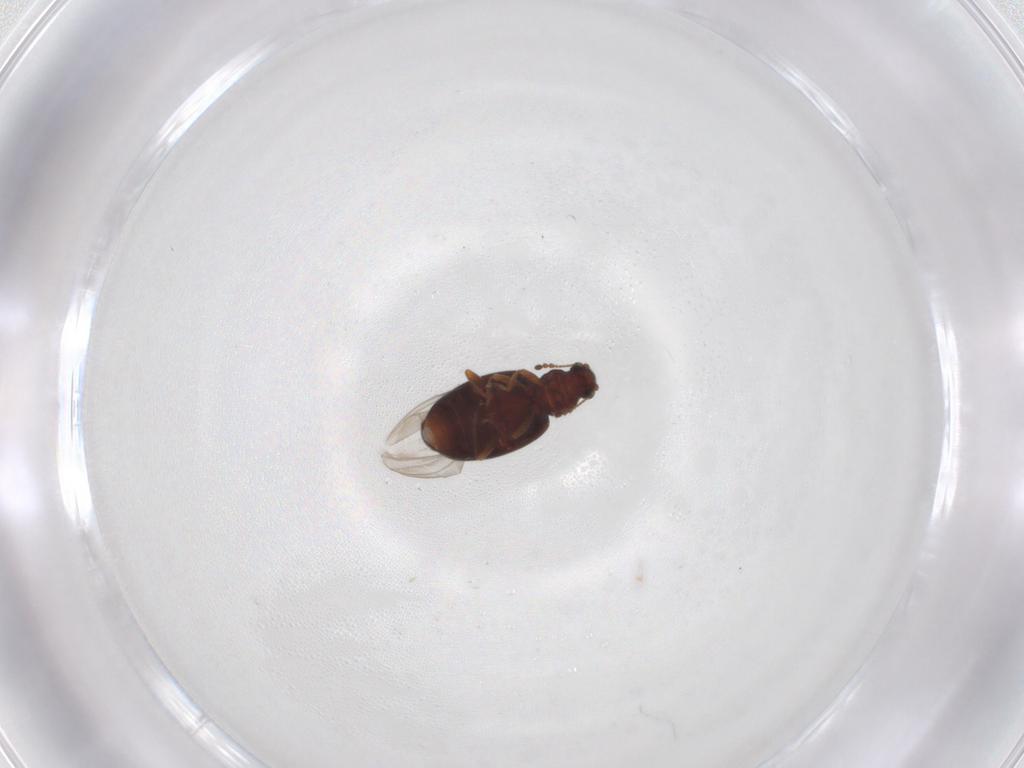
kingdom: Animalia
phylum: Arthropoda
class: Insecta
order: Coleoptera
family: Latridiidae
